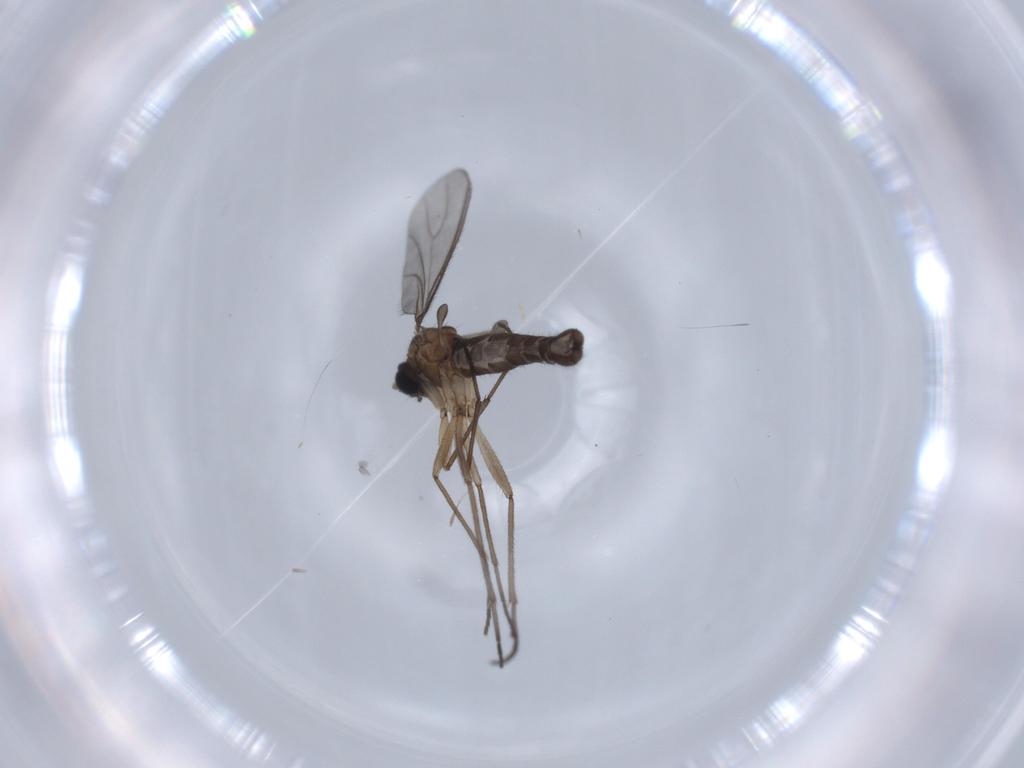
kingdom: Animalia
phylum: Arthropoda
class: Insecta
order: Diptera
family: Sciaridae
